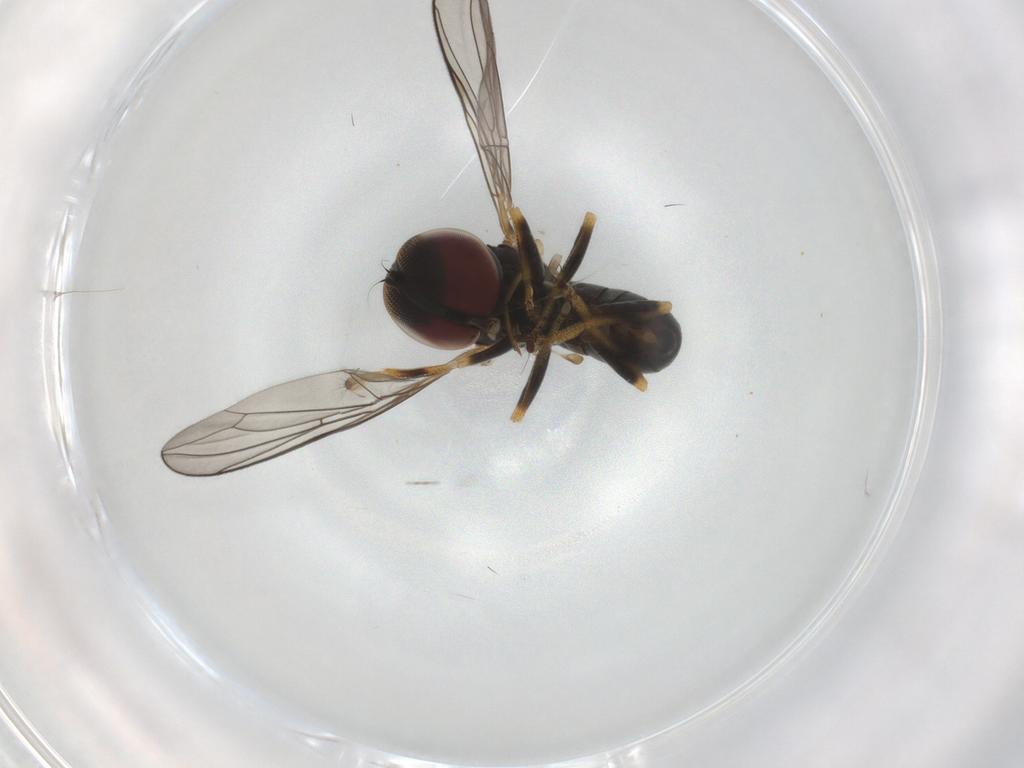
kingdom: Animalia
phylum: Arthropoda
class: Insecta
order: Diptera
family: Pipunculidae
